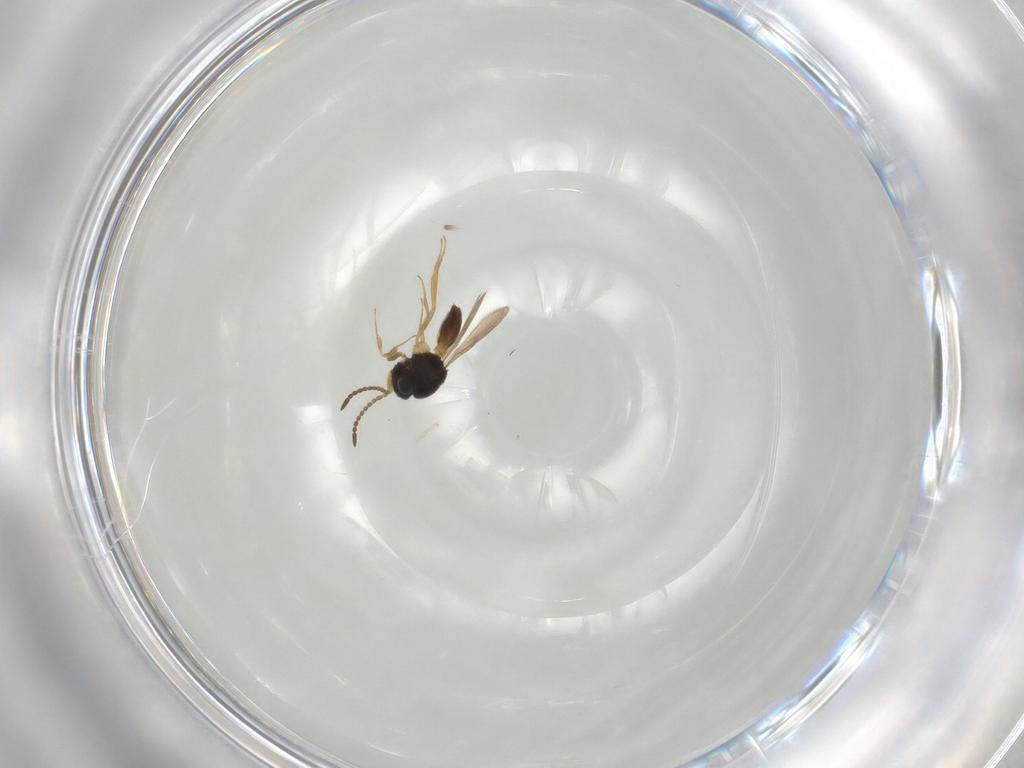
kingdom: Animalia
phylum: Arthropoda
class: Insecta
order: Hymenoptera
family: Scelionidae
